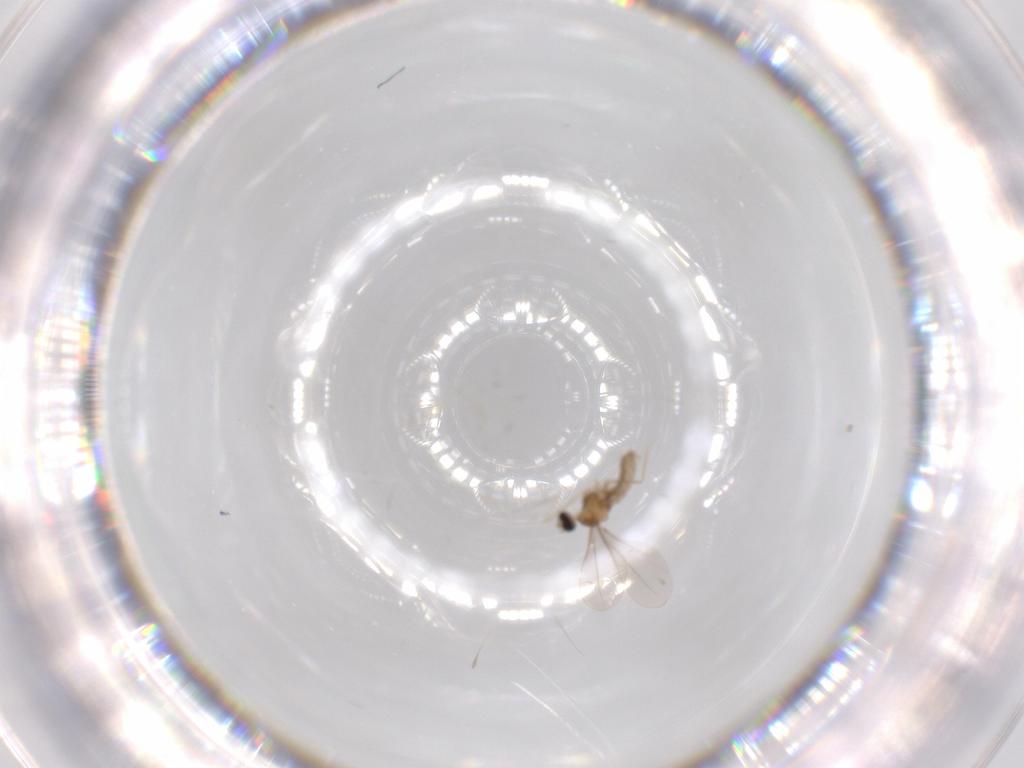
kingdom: Animalia
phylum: Arthropoda
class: Insecta
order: Diptera
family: Cecidomyiidae
